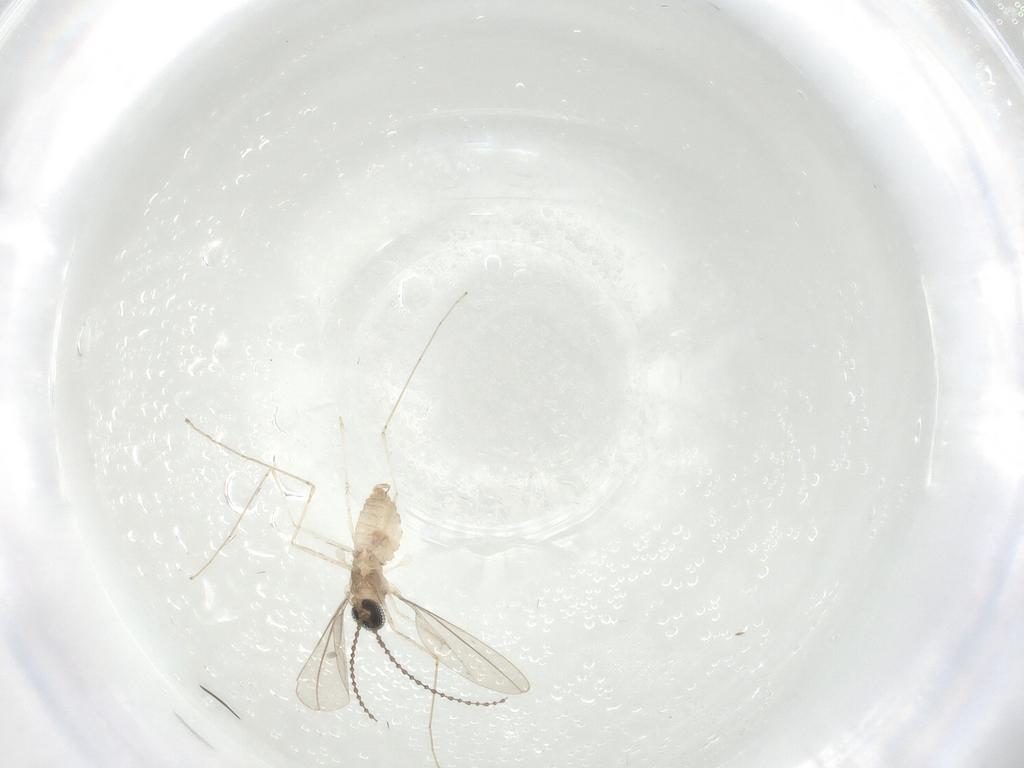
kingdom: Animalia
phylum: Arthropoda
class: Insecta
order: Diptera
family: Cecidomyiidae
